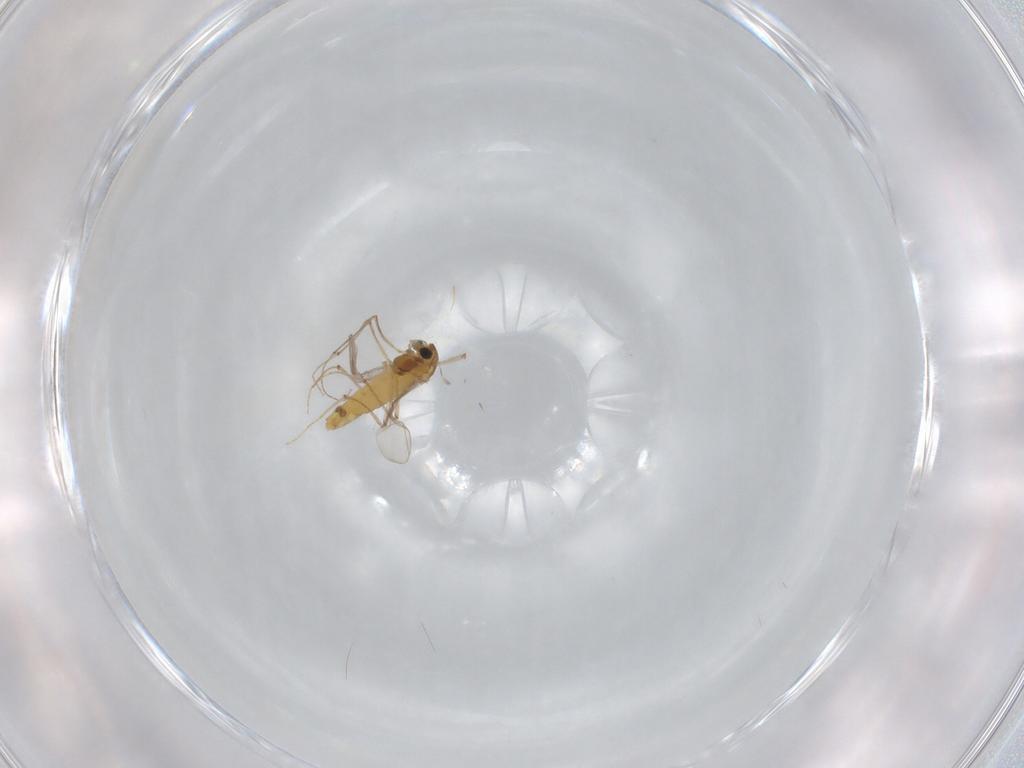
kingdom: Animalia
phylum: Arthropoda
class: Insecta
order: Diptera
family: Chironomidae
